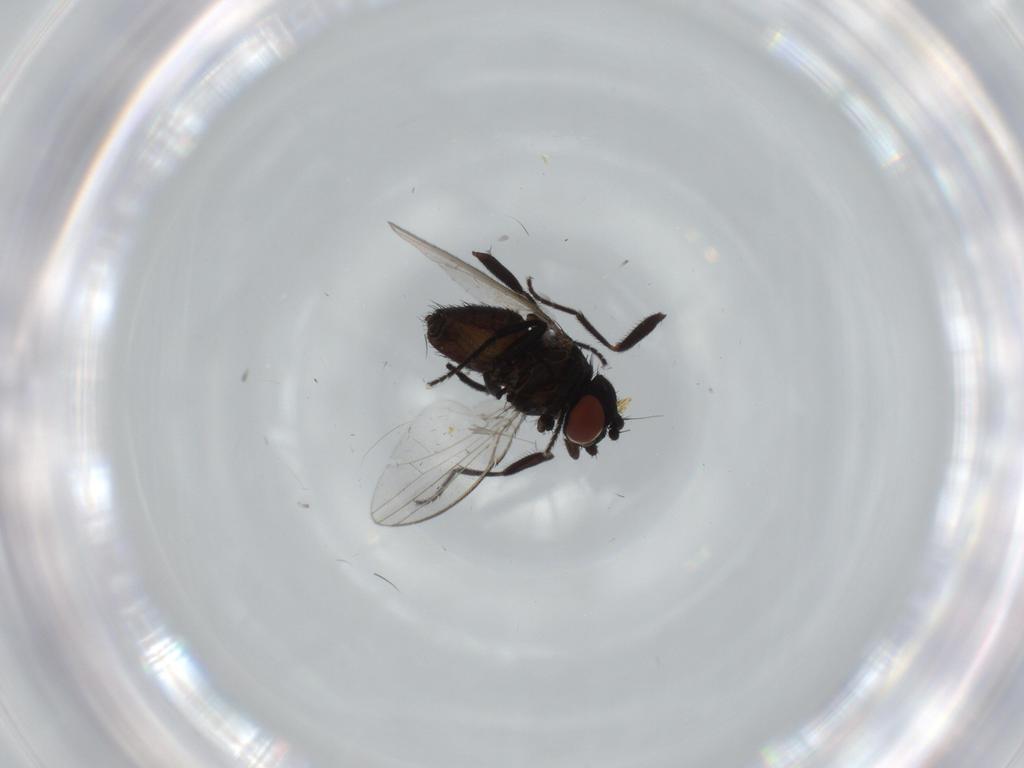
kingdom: Animalia
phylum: Arthropoda
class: Insecta
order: Diptera
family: Milichiidae
